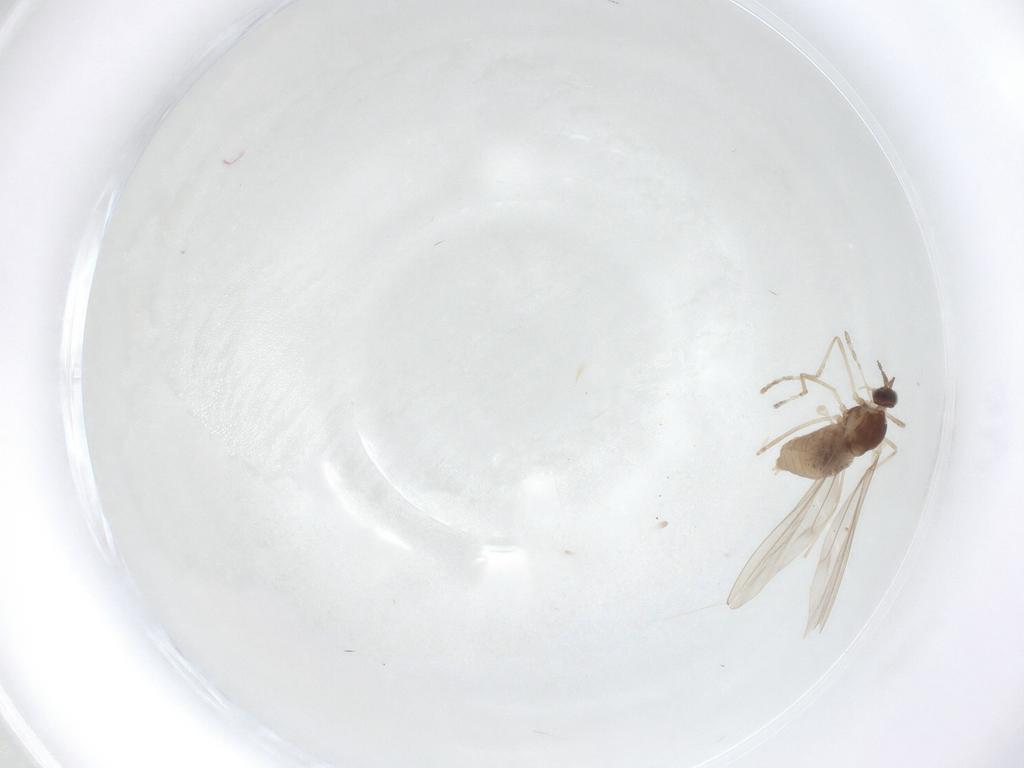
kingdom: Animalia
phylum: Arthropoda
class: Insecta
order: Diptera
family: Cecidomyiidae
